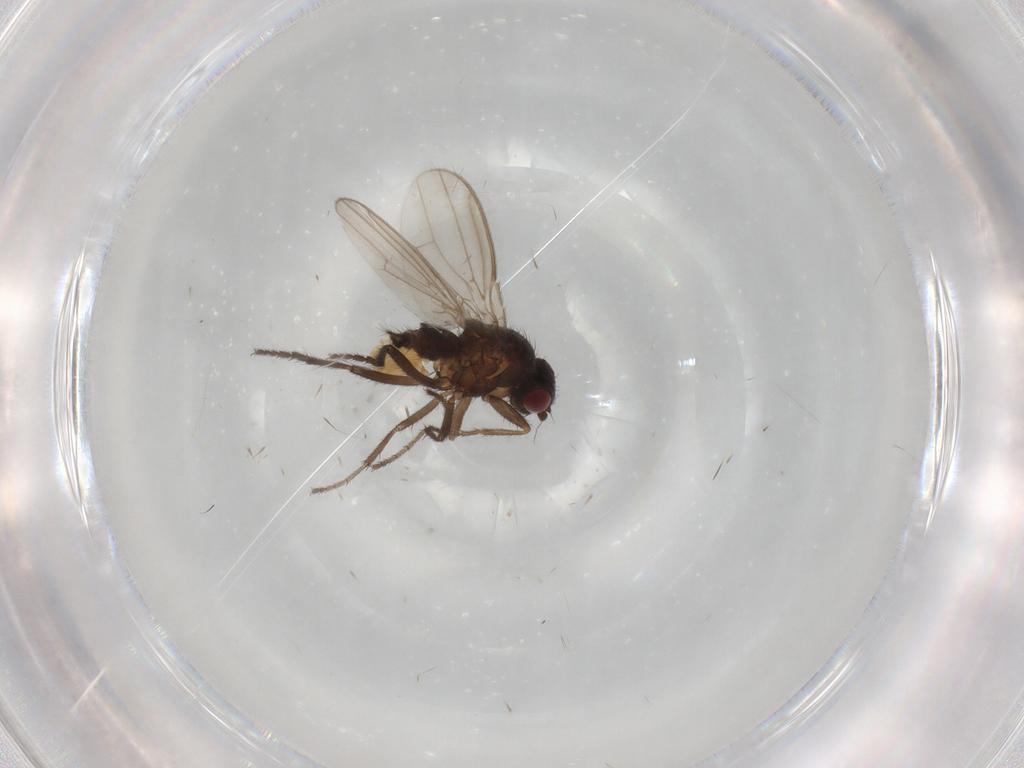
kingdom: Animalia
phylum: Arthropoda
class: Insecta
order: Diptera
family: Sphaeroceridae
